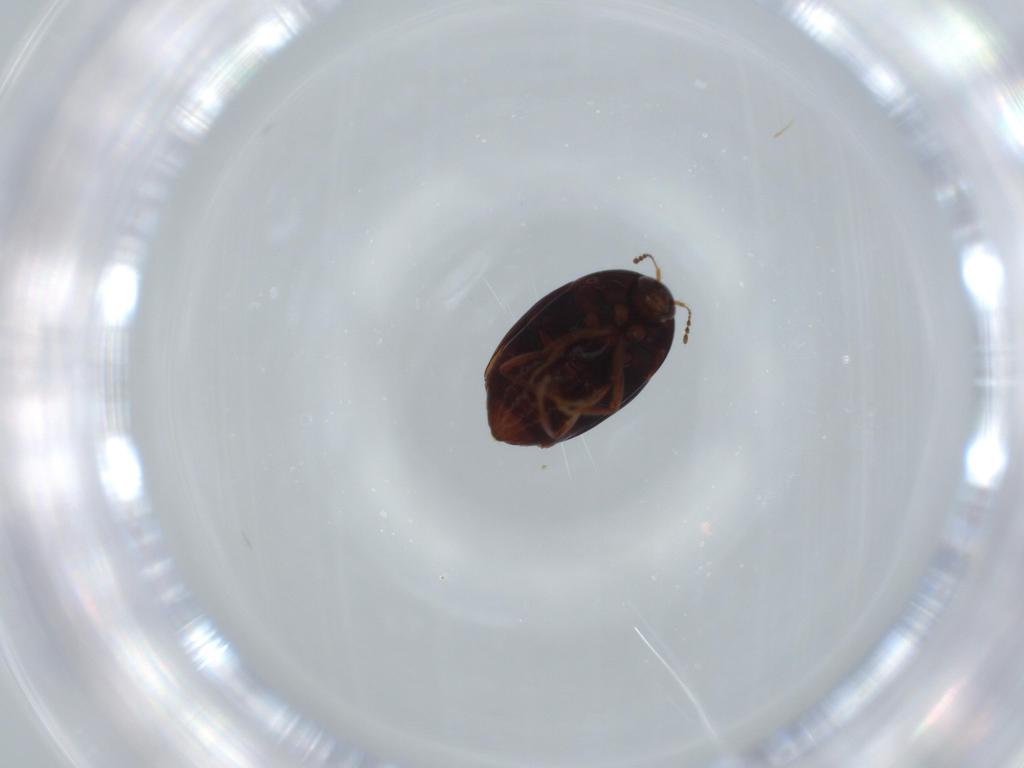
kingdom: Animalia
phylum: Arthropoda
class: Insecta
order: Coleoptera
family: Staphylinidae
